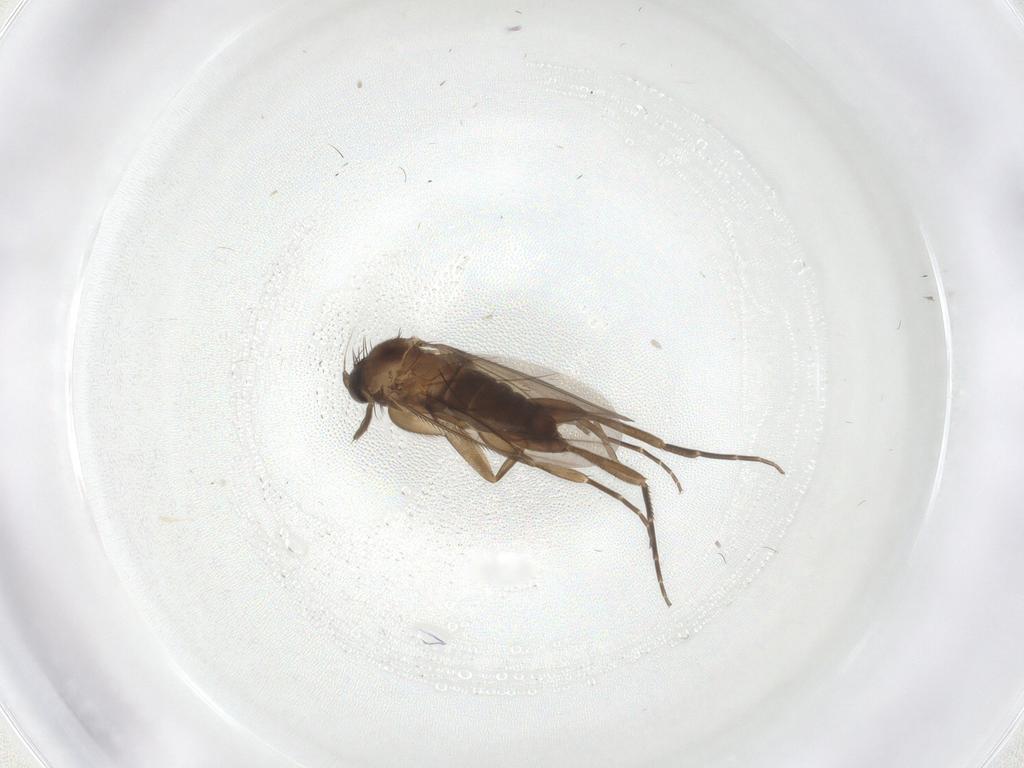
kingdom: Animalia
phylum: Arthropoda
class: Insecta
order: Diptera
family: Phoridae
